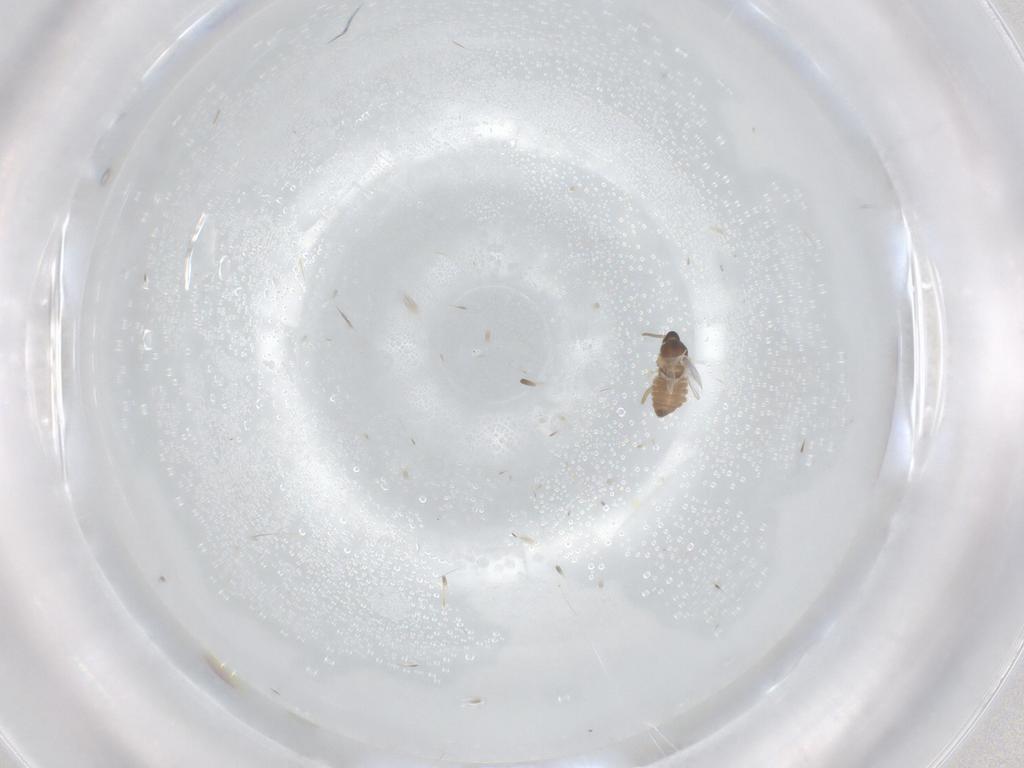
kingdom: Animalia
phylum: Arthropoda
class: Insecta
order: Diptera
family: Cecidomyiidae
